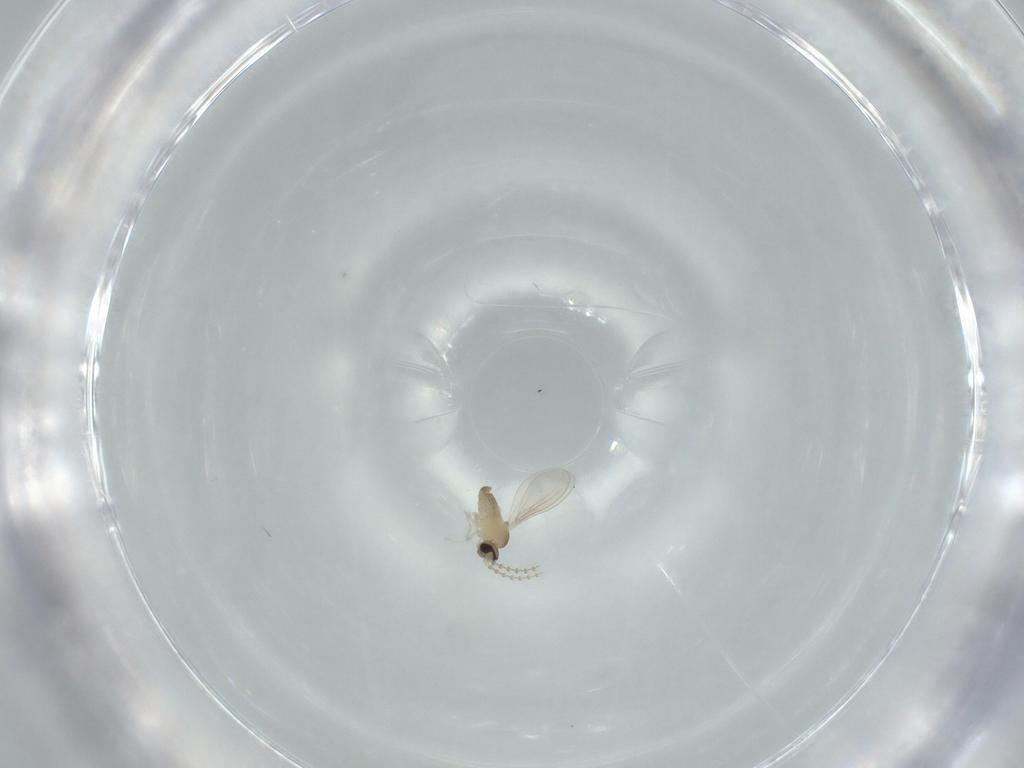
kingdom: Animalia
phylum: Arthropoda
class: Insecta
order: Diptera
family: Cecidomyiidae
